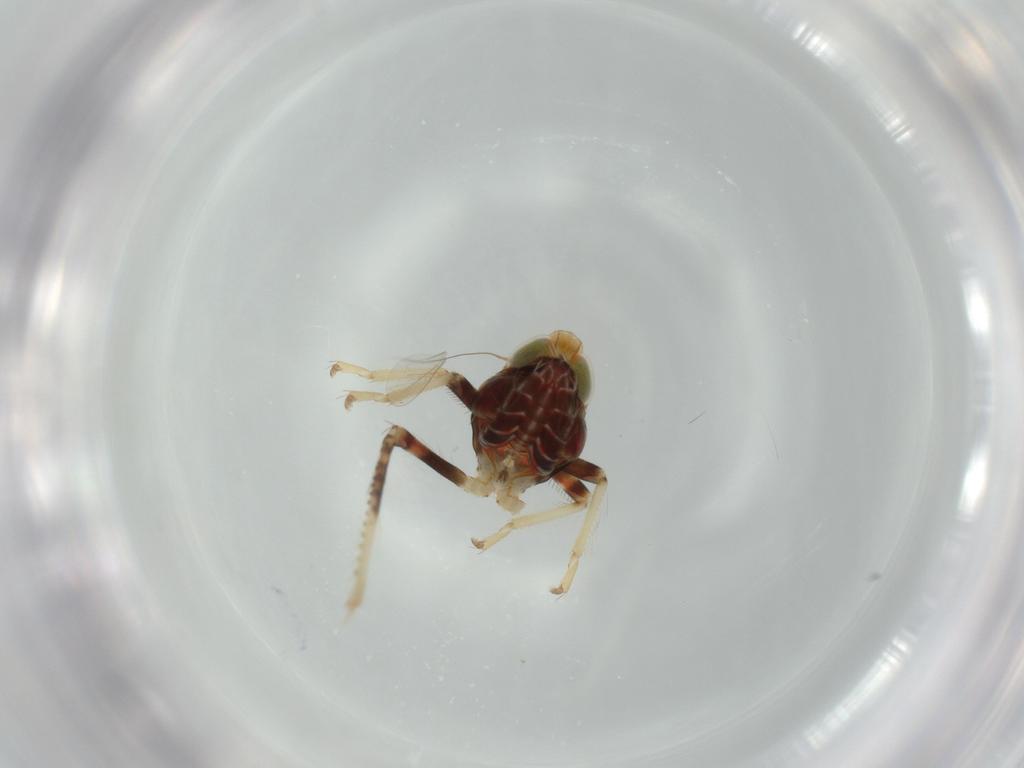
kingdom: Animalia
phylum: Arthropoda
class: Insecta
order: Hemiptera
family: Cicadellidae
